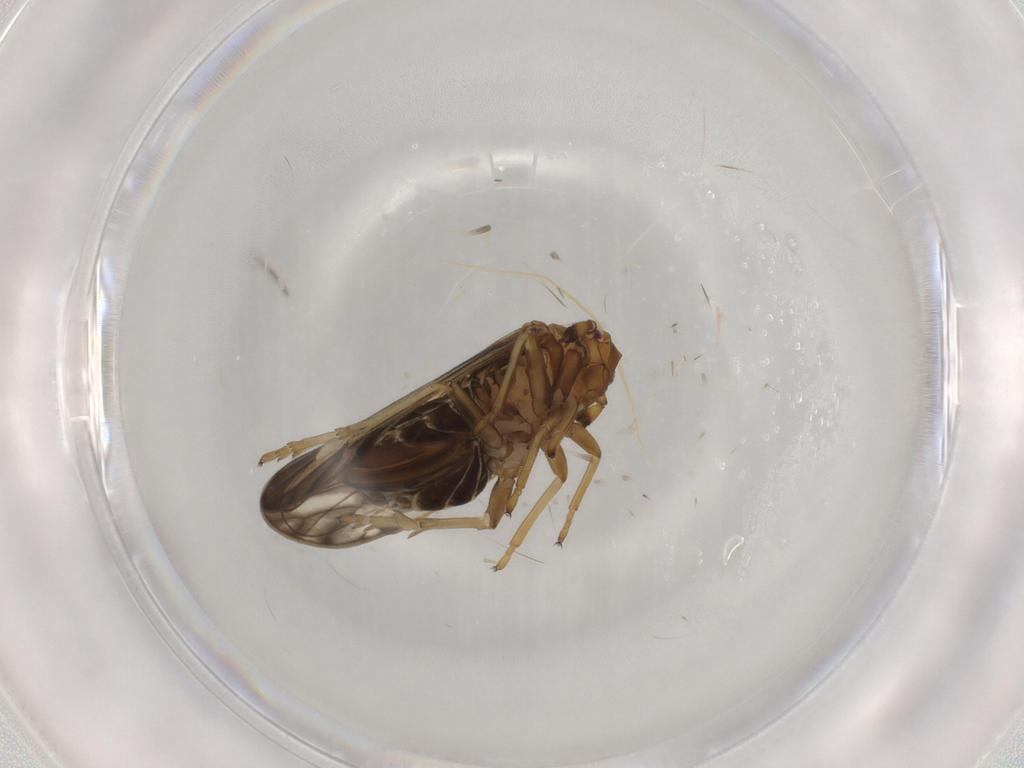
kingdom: Animalia
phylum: Arthropoda
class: Insecta
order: Hemiptera
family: Delphacidae
